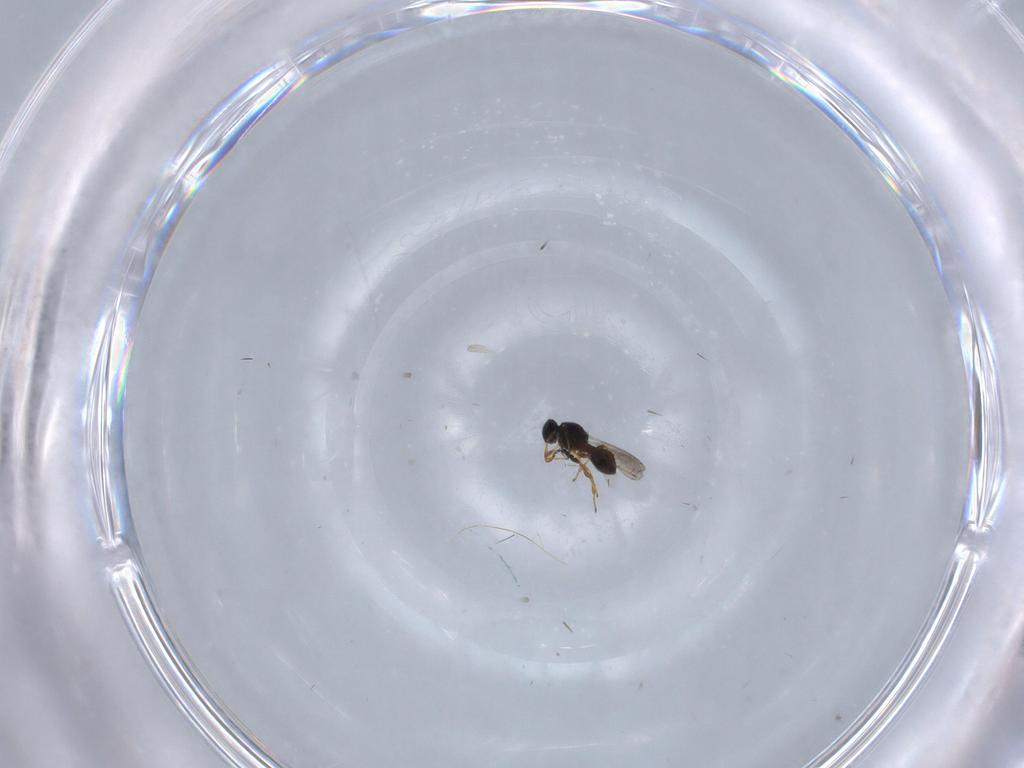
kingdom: Animalia
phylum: Arthropoda
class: Insecta
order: Hymenoptera
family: Platygastridae
